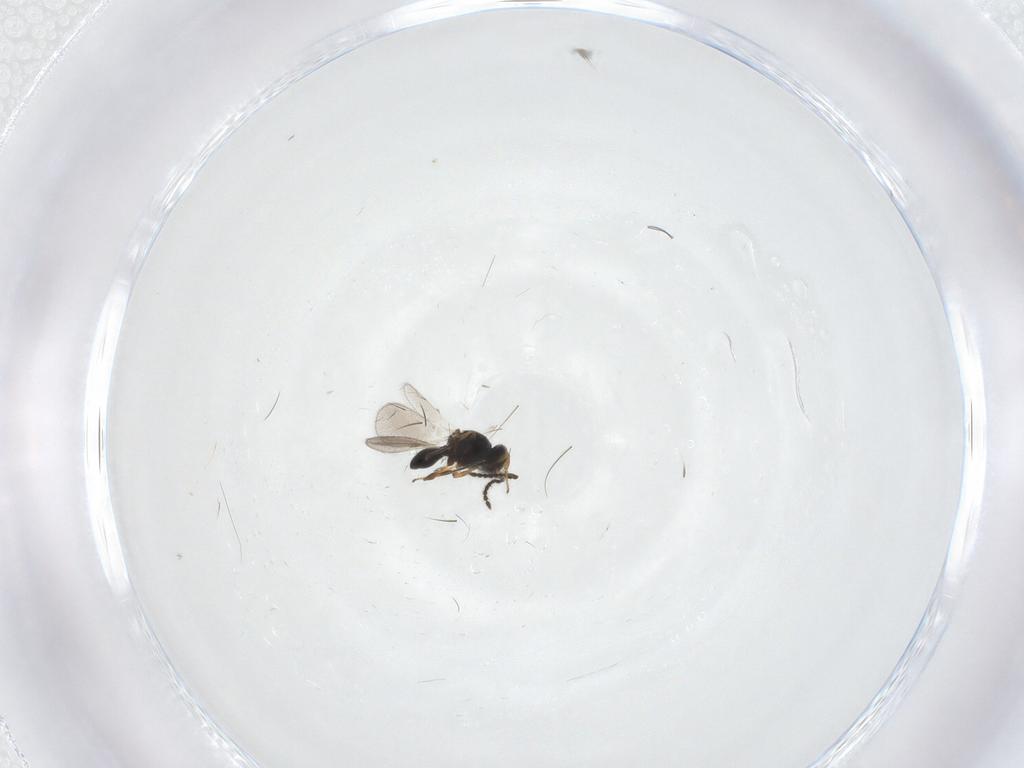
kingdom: Animalia
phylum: Arthropoda
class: Insecta
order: Hymenoptera
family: Platygastridae
